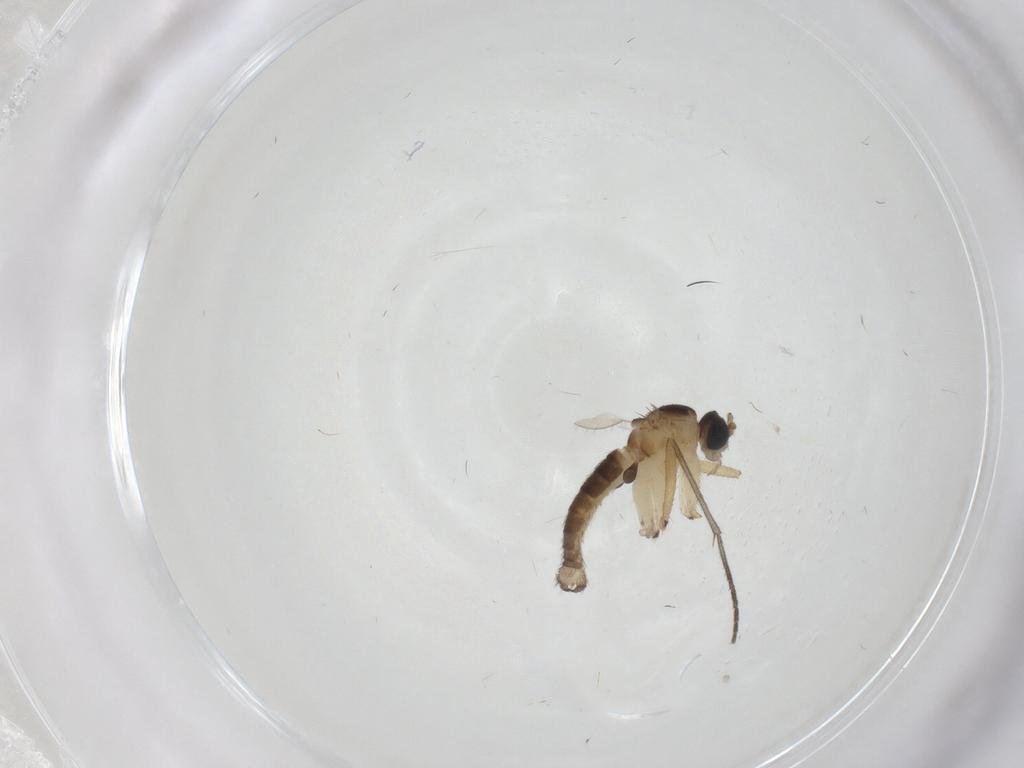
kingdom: Animalia
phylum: Arthropoda
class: Insecta
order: Diptera
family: Sciaridae
